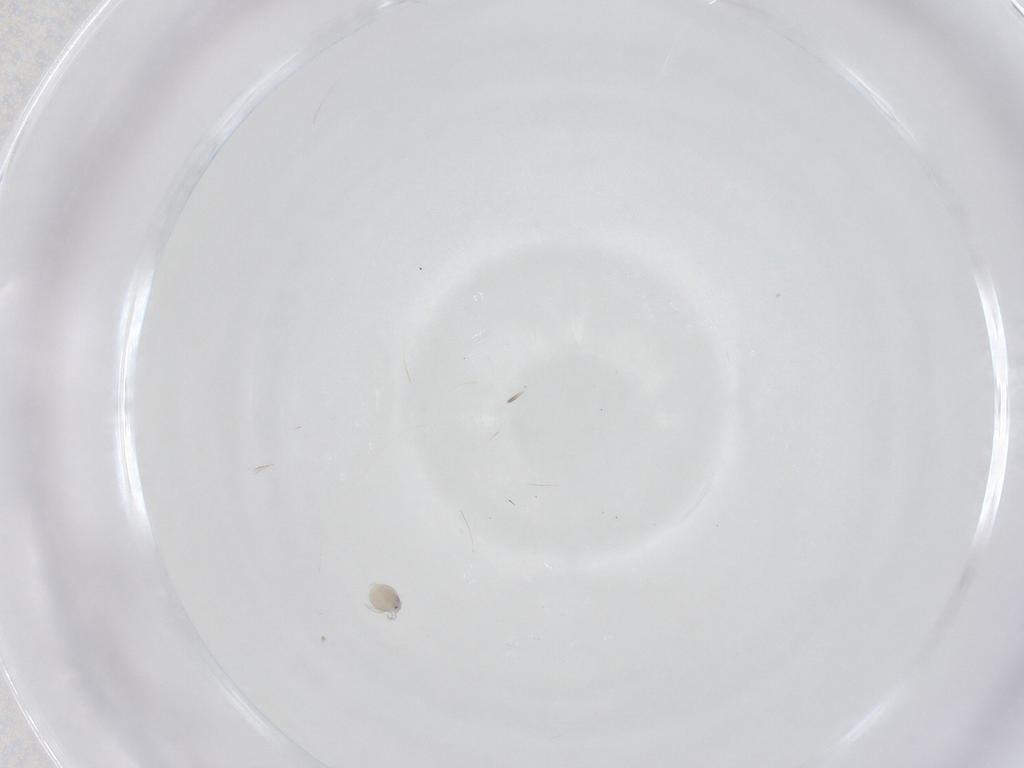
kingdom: Animalia
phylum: Arthropoda
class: Arachnida
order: Trombidiformes
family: Pionidae
